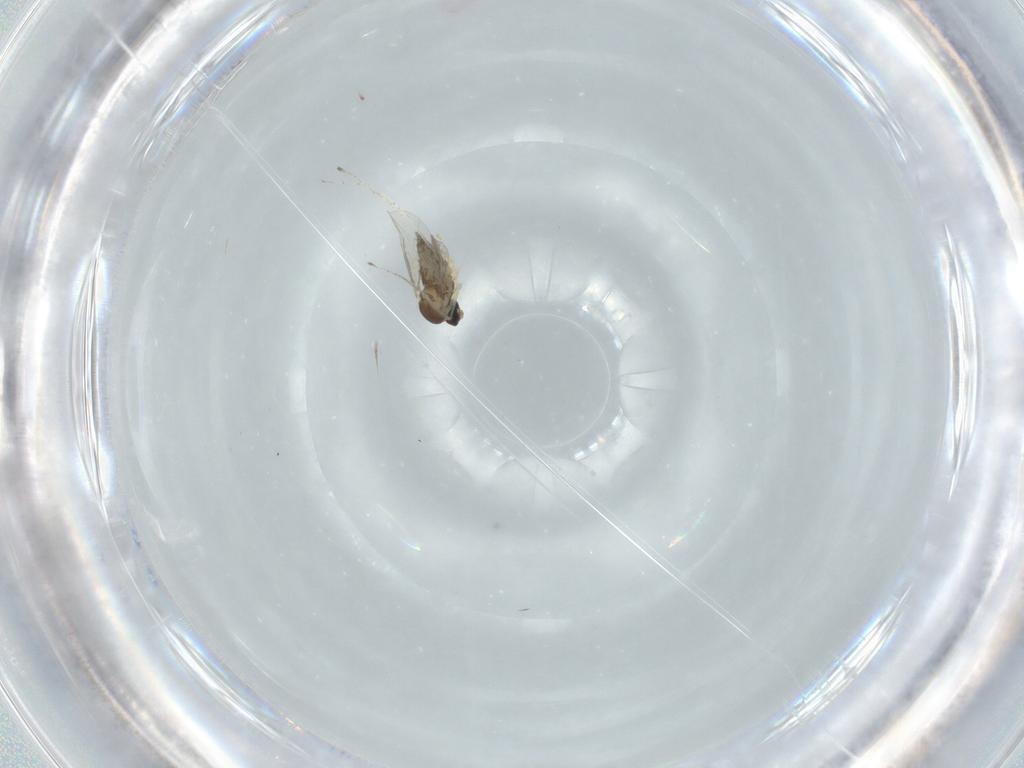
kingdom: Animalia
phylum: Arthropoda
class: Insecta
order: Diptera
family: Cecidomyiidae
